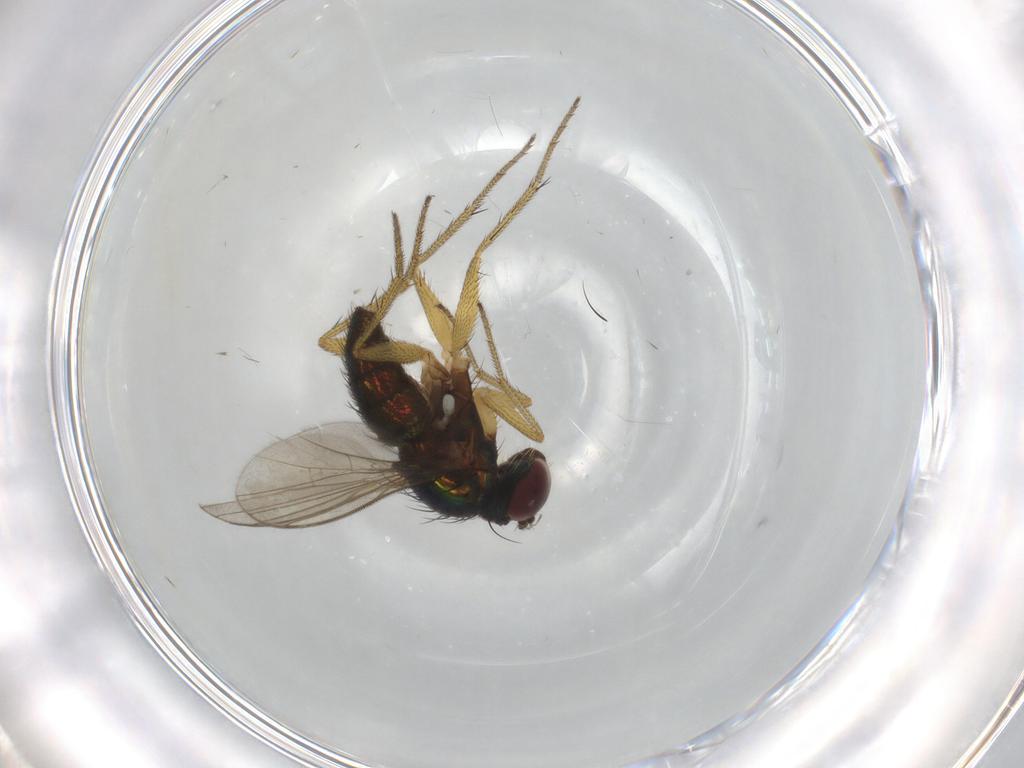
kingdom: Animalia
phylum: Arthropoda
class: Insecta
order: Diptera
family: Dolichopodidae
